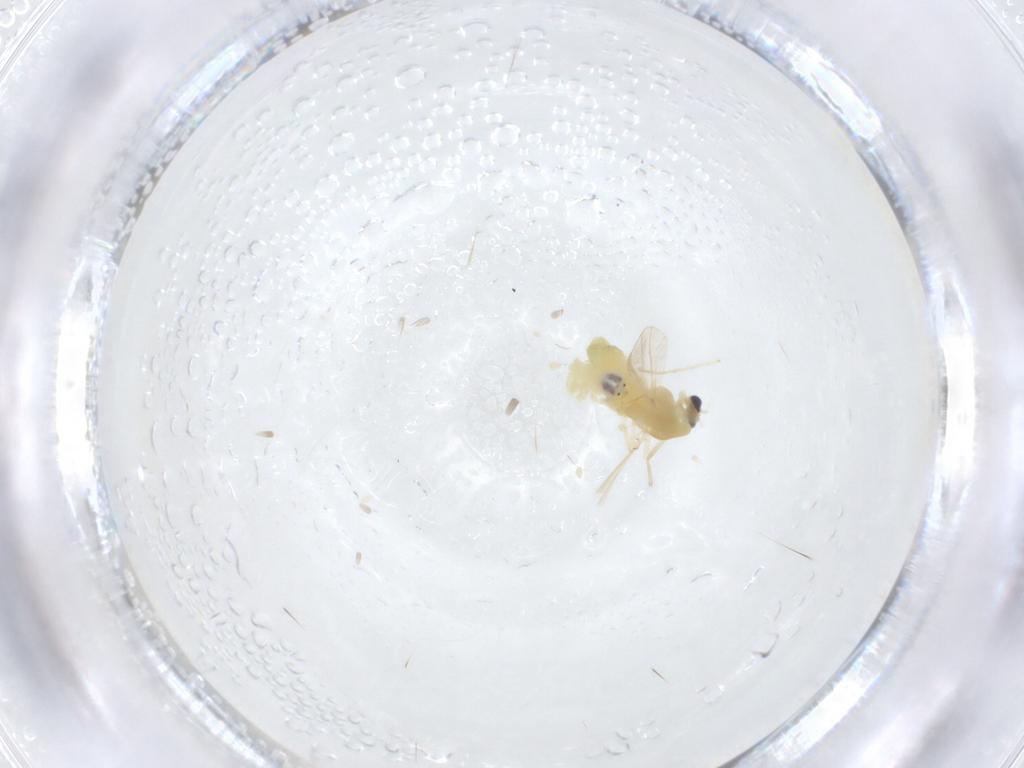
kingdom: Animalia
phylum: Arthropoda
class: Insecta
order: Diptera
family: Chironomidae
